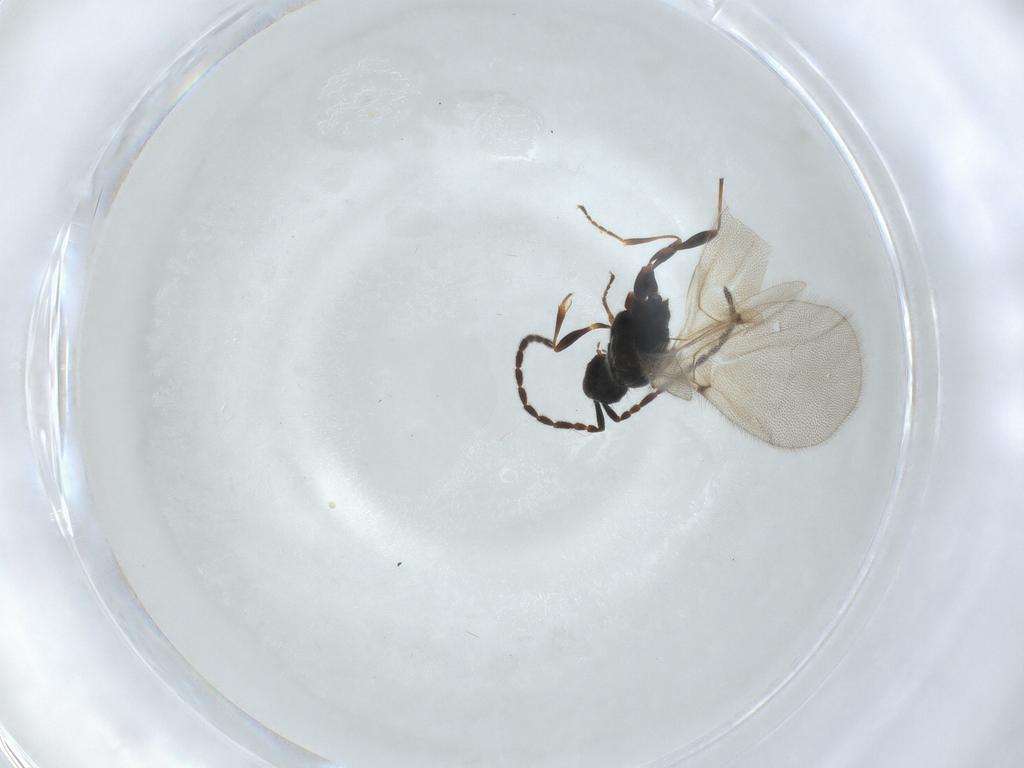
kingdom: Animalia
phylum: Arthropoda
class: Insecta
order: Hymenoptera
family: Diapriidae
